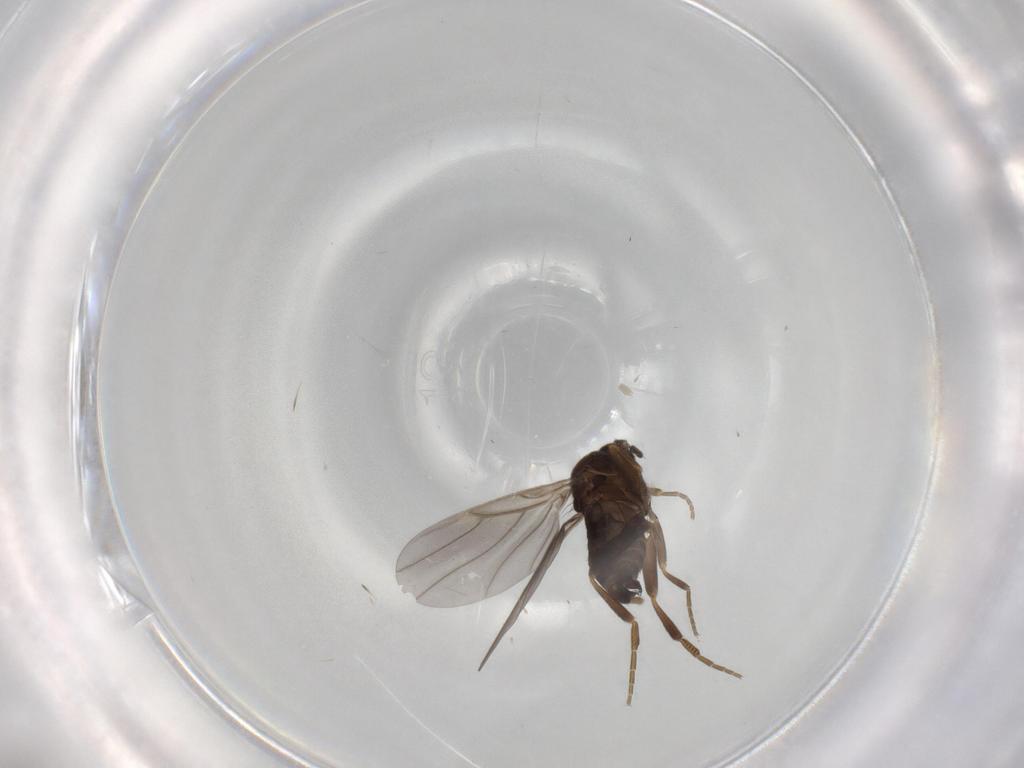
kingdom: Animalia
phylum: Arthropoda
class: Insecta
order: Diptera
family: Phoridae
